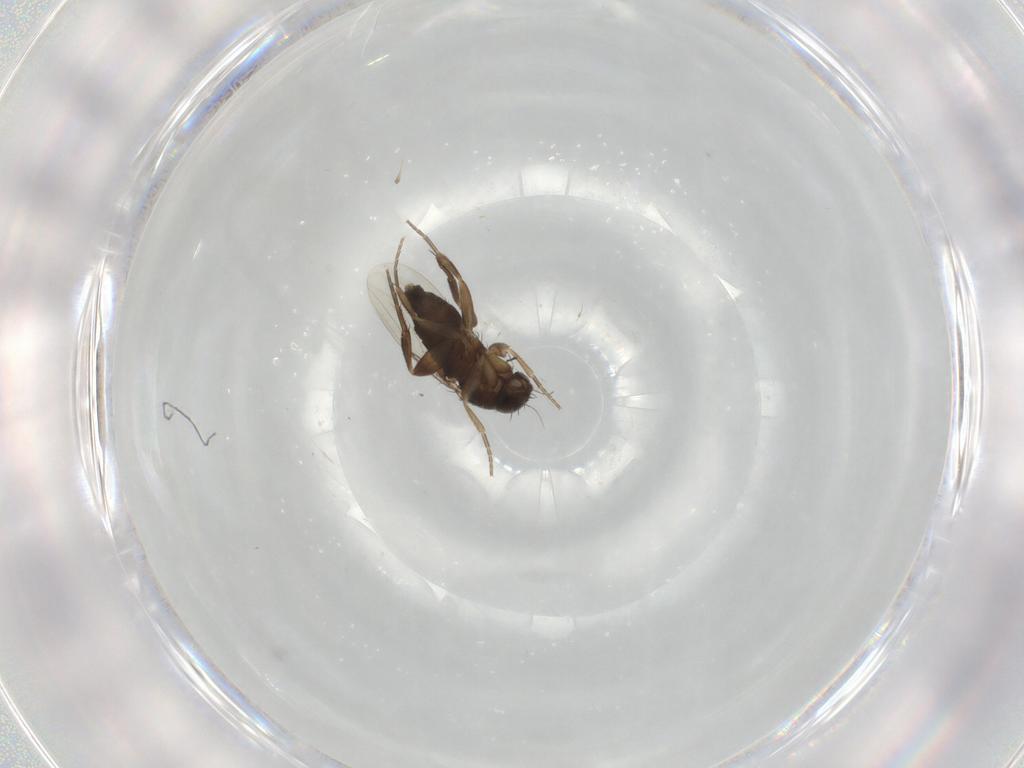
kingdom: Animalia
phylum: Arthropoda
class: Insecta
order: Diptera
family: Phoridae
